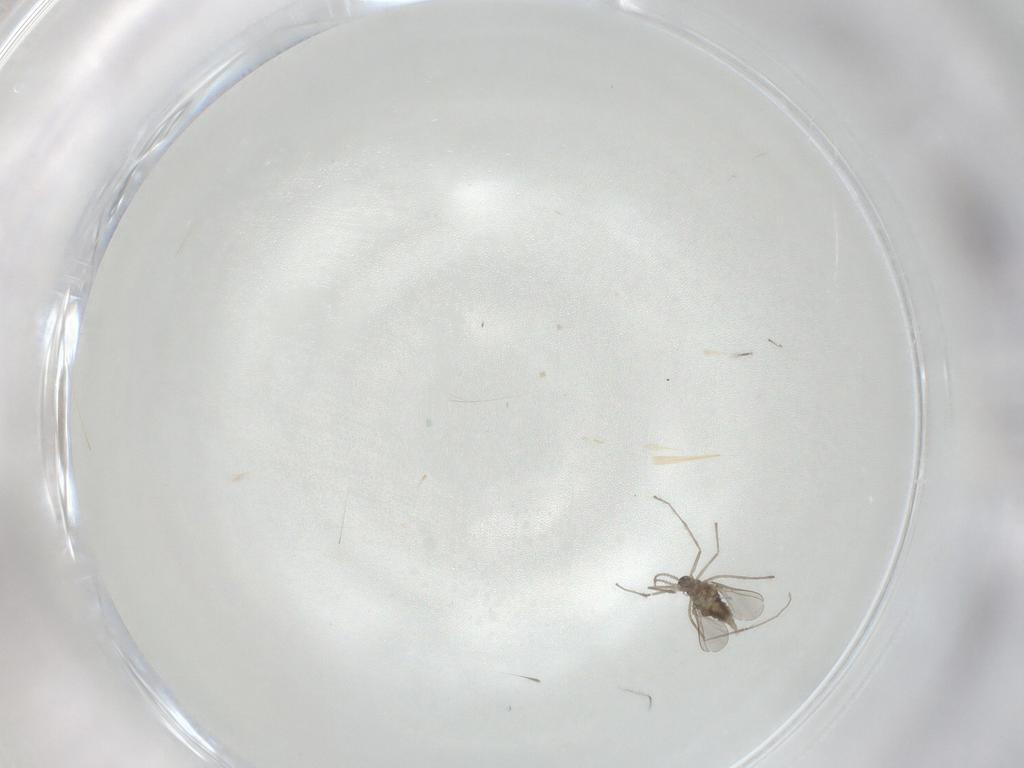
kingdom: Animalia
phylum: Arthropoda
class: Insecta
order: Diptera
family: Cecidomyiidae
